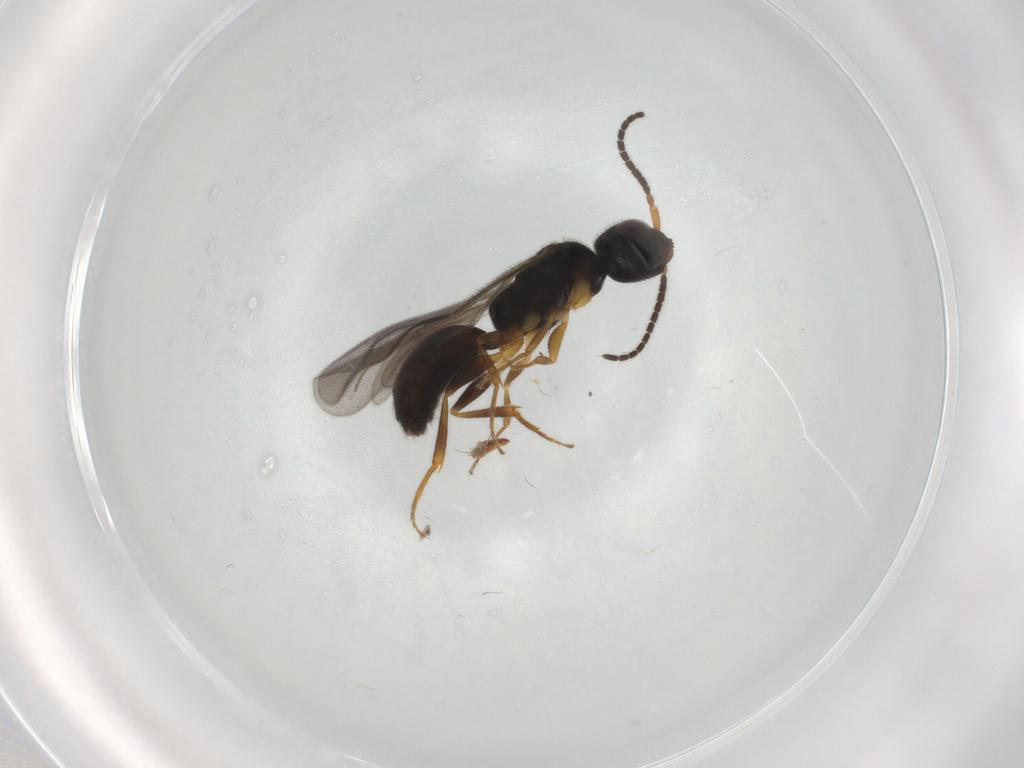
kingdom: Animalia
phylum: Arthropoda
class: Insecta
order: Hymenoptera
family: Bethylidae
